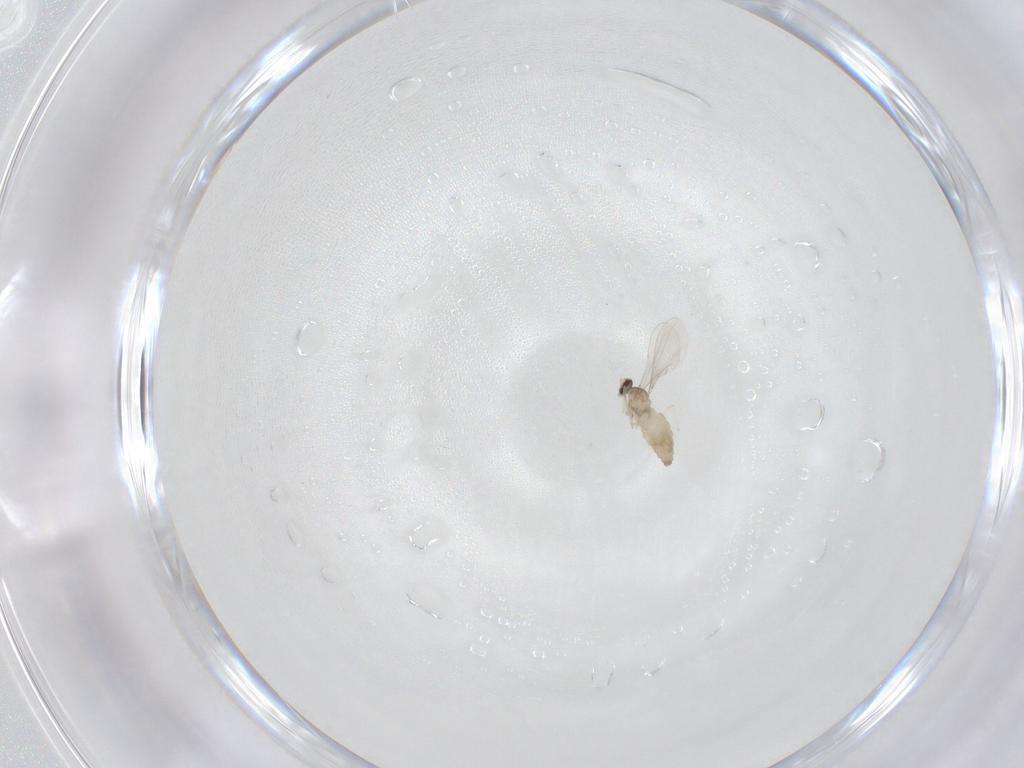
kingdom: Animalia
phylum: Arthropoda
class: Insecta
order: Diptera
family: Cecidomyiidae
